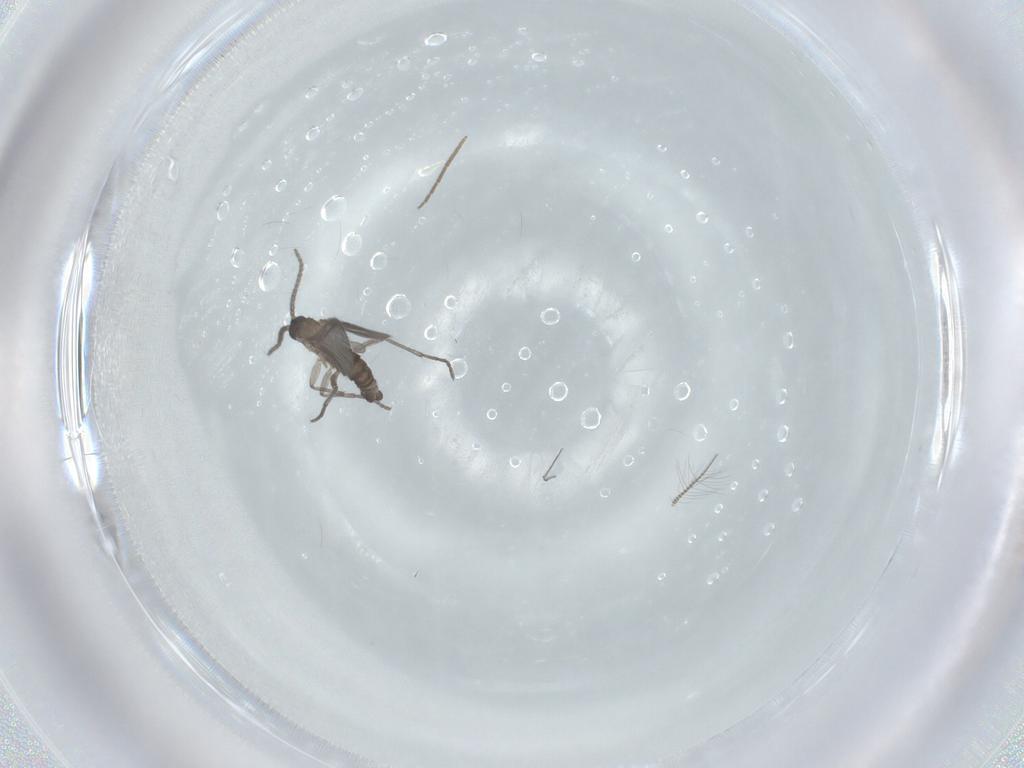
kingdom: Animalia
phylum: Arthropoda
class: Insecta
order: Diptera
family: Sciaridae
